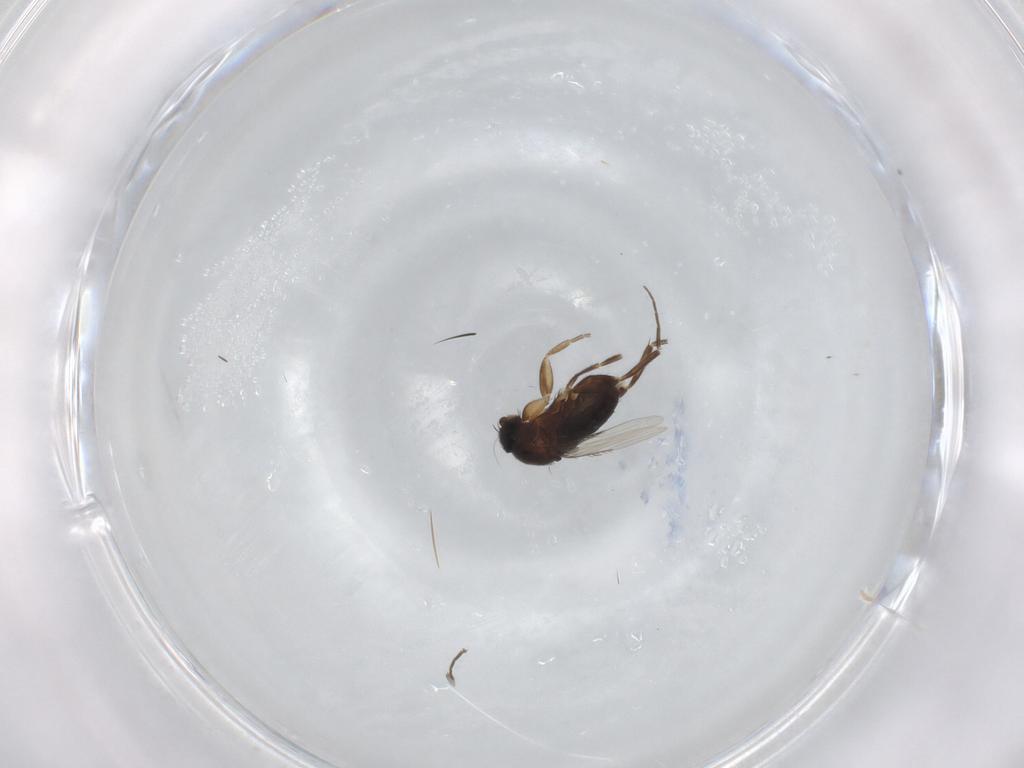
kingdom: Animalia
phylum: Arthropoda
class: Insecta
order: Diptera
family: Phoridae
